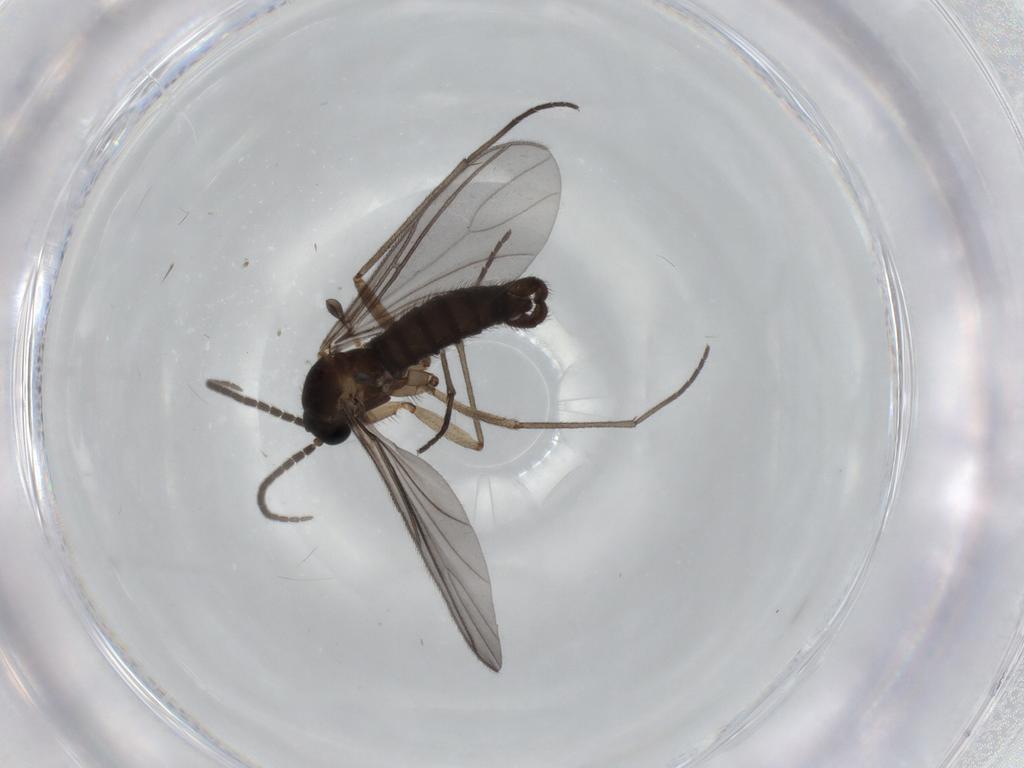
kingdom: Animalia
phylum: Arthropoda
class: Insecta
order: Diptera
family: Sciaridae
